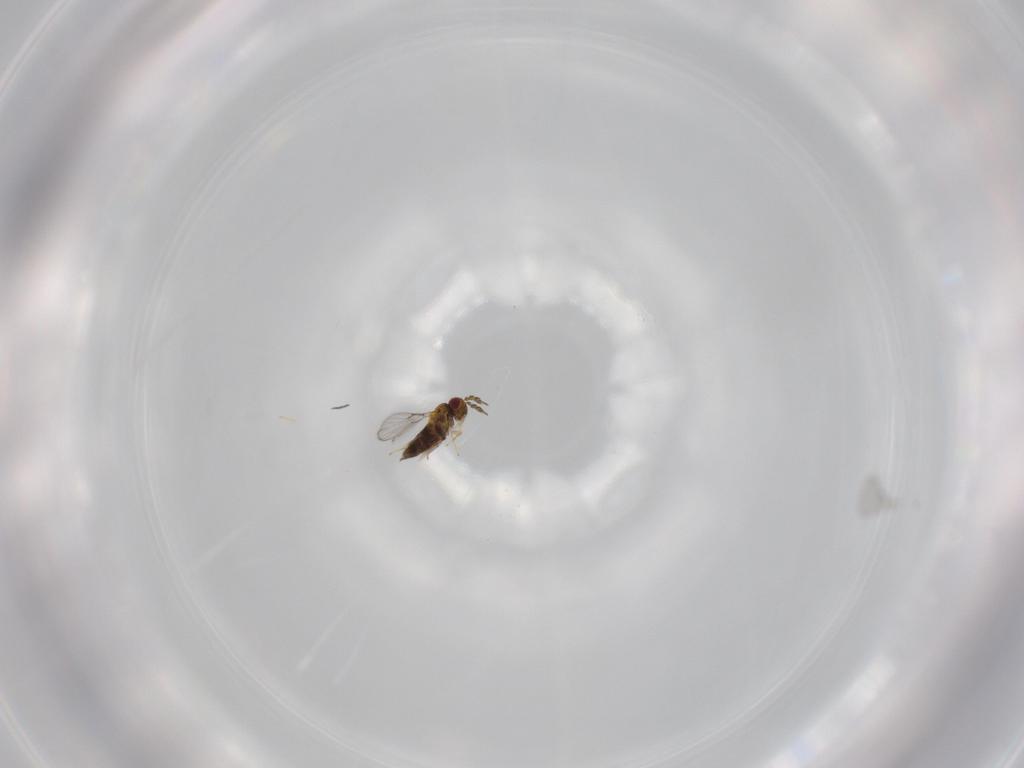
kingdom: Animalia
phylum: Arthropoda
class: Insecta
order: Hymenoptera
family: Trichogrammatidae
